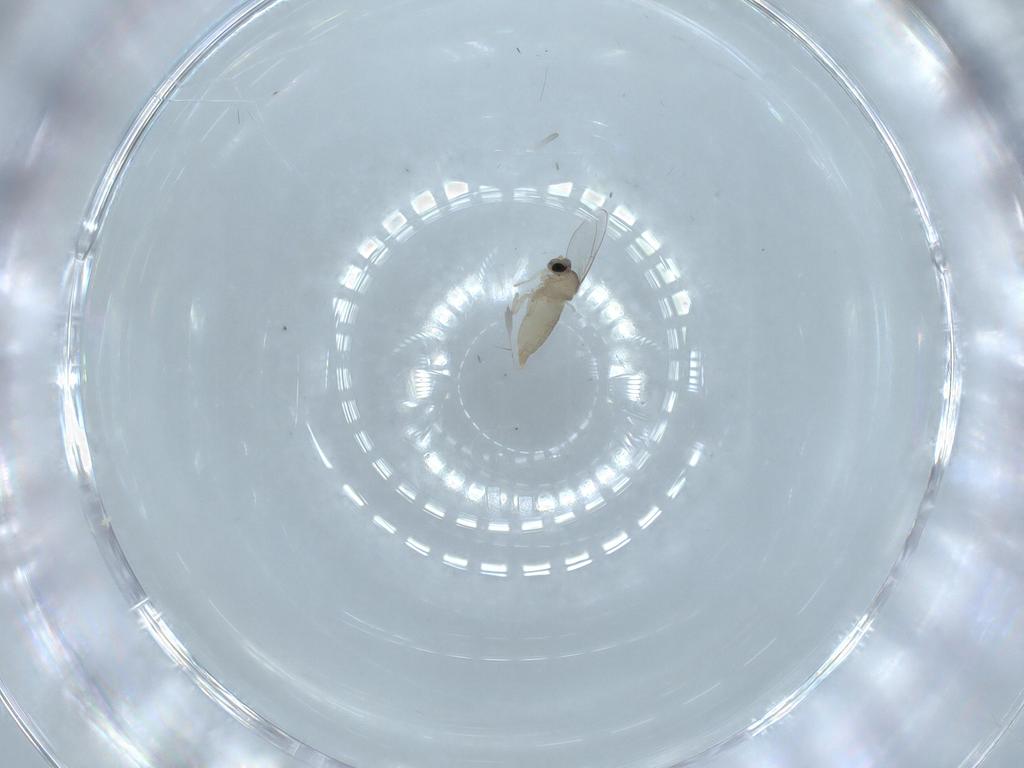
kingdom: Animalia
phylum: Arthropoda
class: Insecta
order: Diptera
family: Cecidomyiidae
